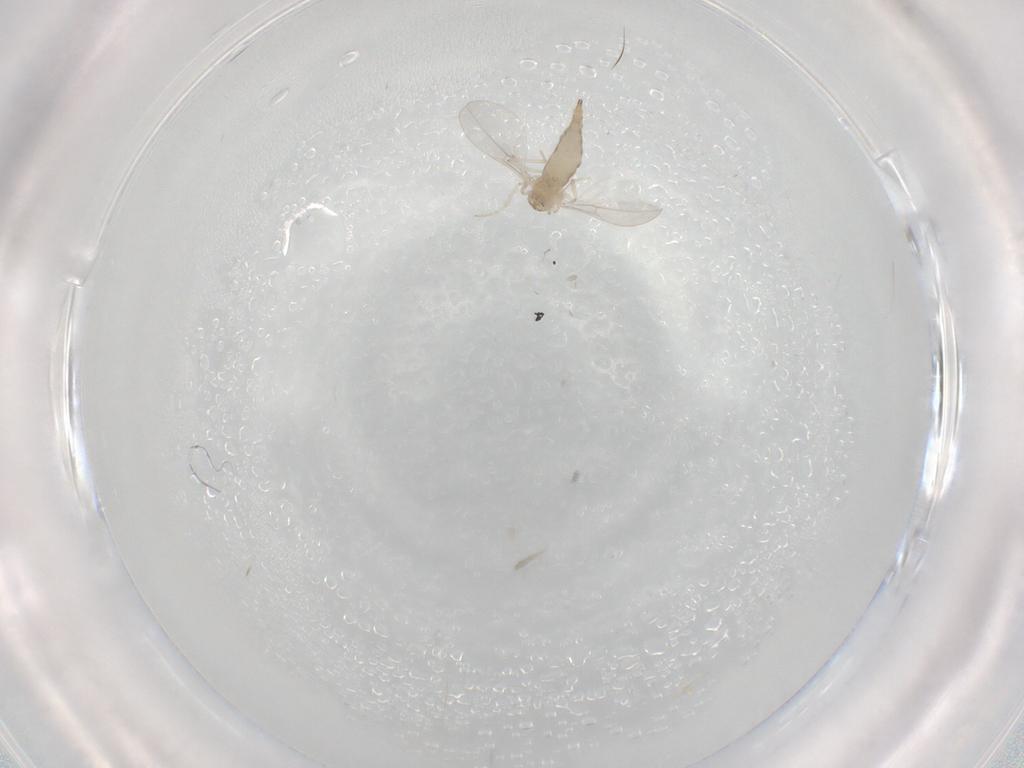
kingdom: Animalia
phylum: Arthropoda
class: Insecta
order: Diptera
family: Cecidomyiidae
